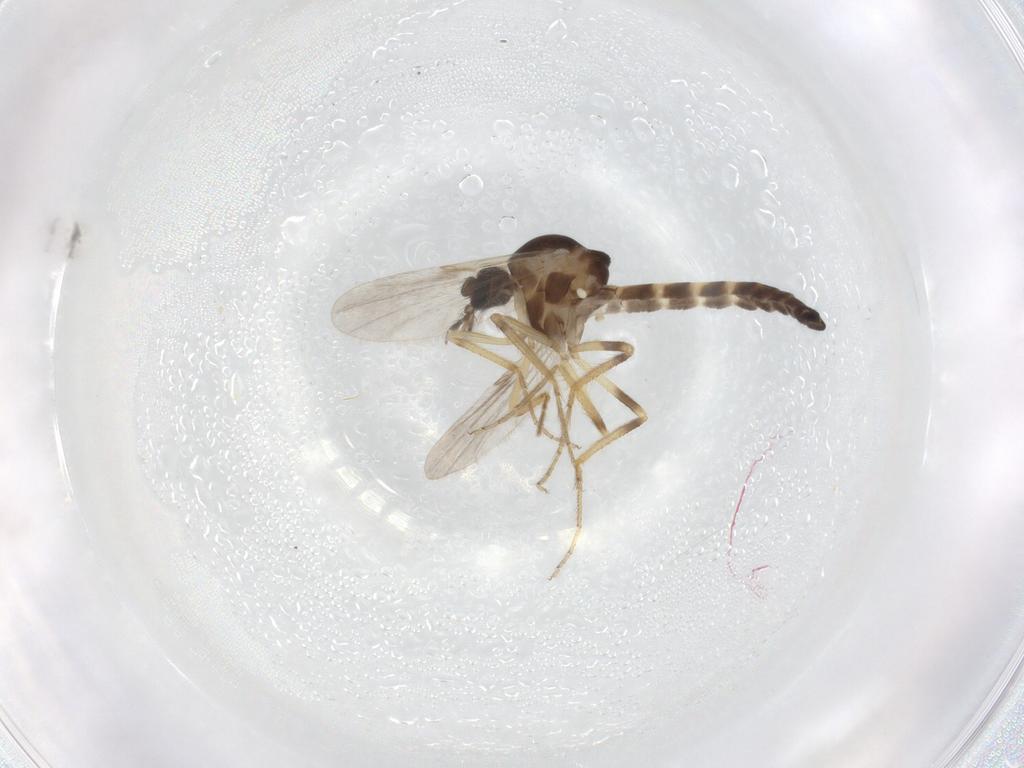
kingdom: Animalia
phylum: Arthropoda
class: Insecta
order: Diptera
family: Ceratopogonidae
